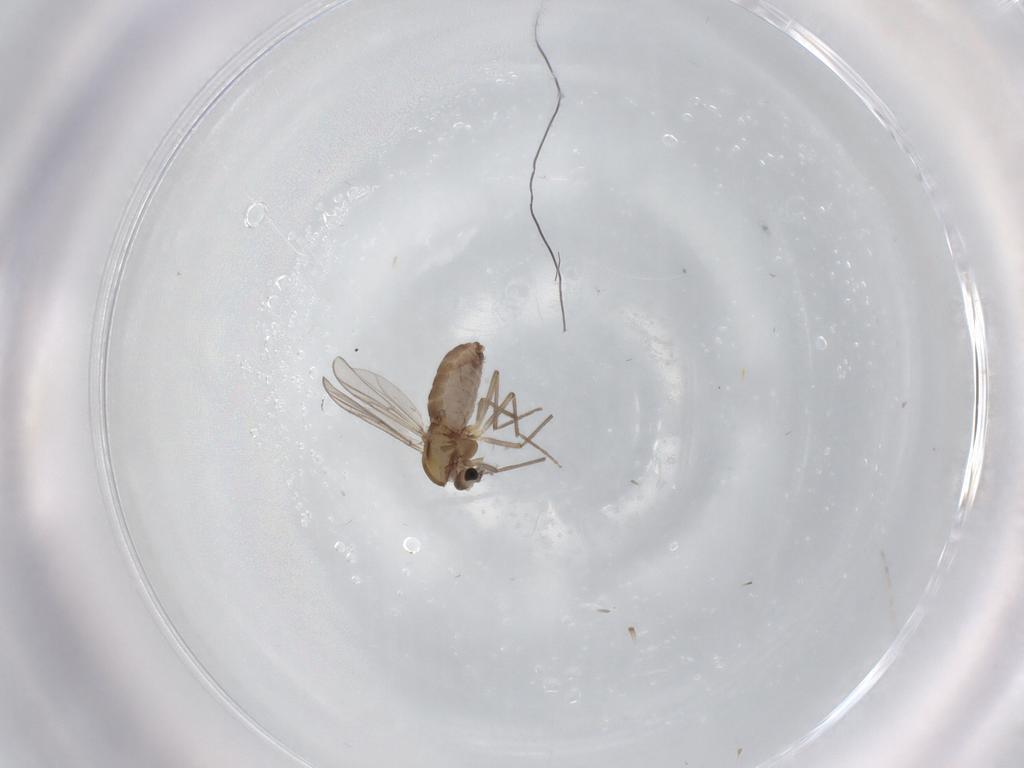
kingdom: Animalia
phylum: Arthropoda
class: Insecta
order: Diptera
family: Chironomidae
